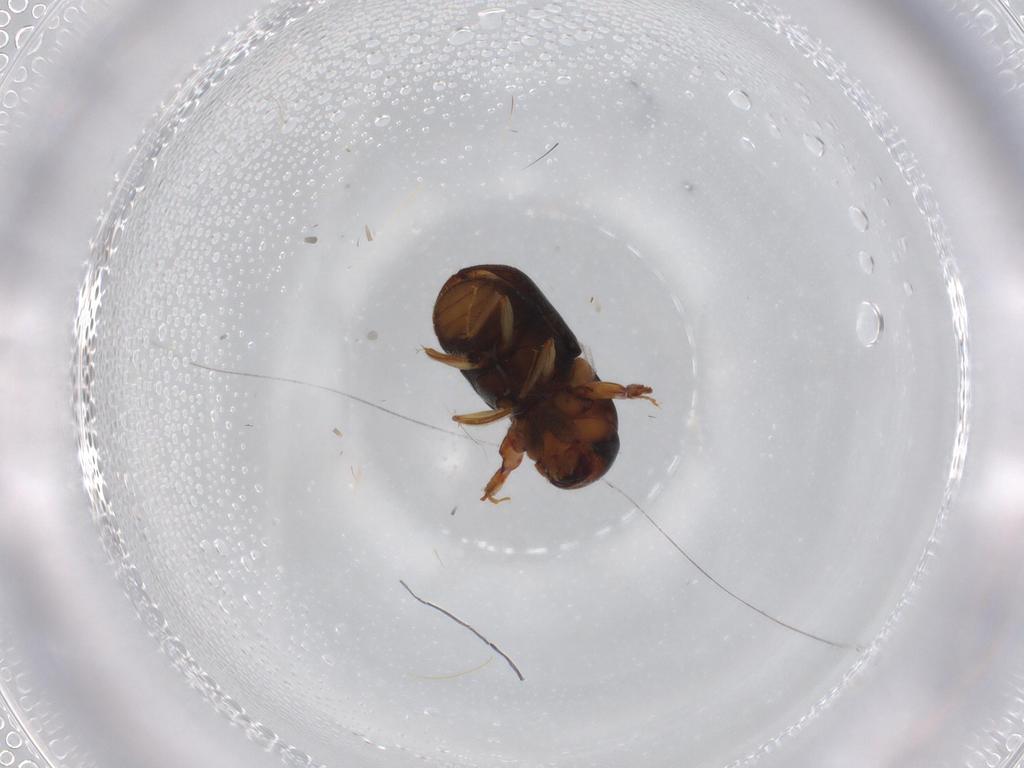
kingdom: Animalia
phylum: Arthropoda
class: Insecta
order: Coleoptera
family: Curculionidae
